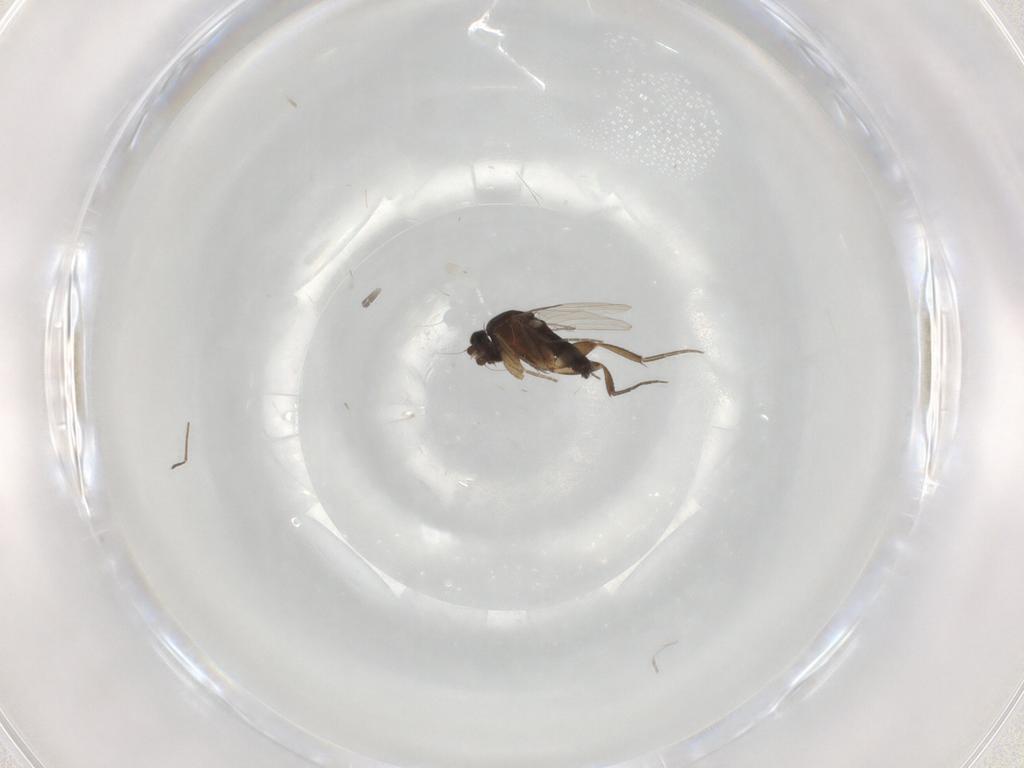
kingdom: Animalia
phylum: Arthropoda
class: Insecta
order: Diptera
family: Phoridae
